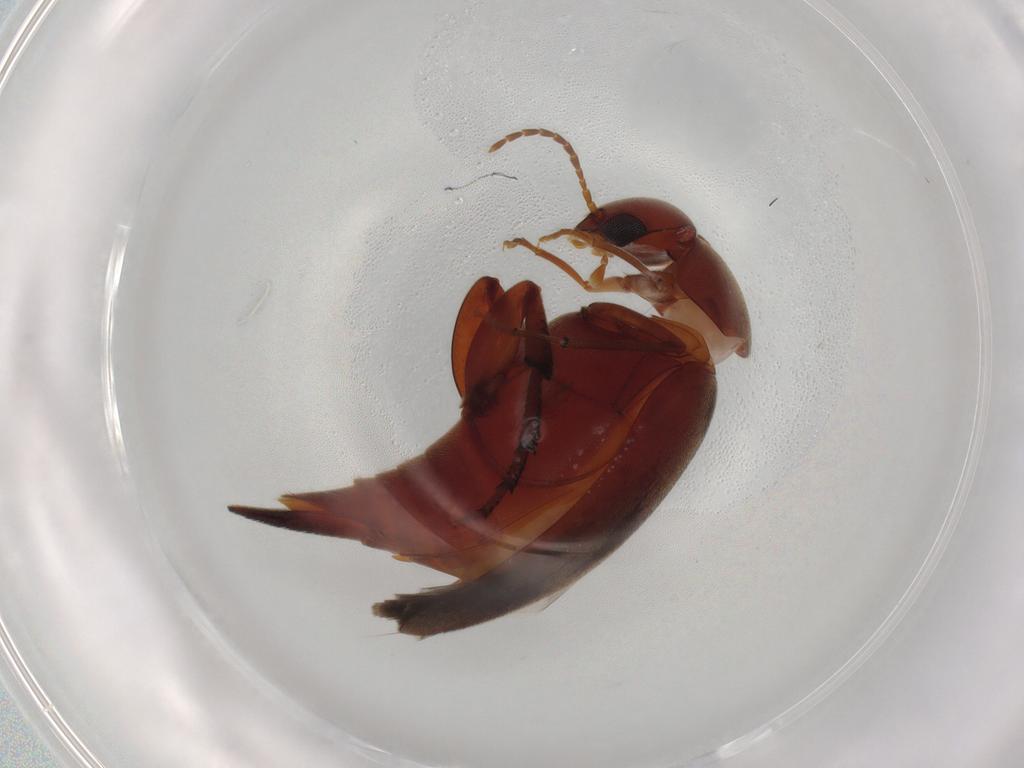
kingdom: Animalia
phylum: Arthropoda
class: Insecta
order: Coleoptera
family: Mordellidae
